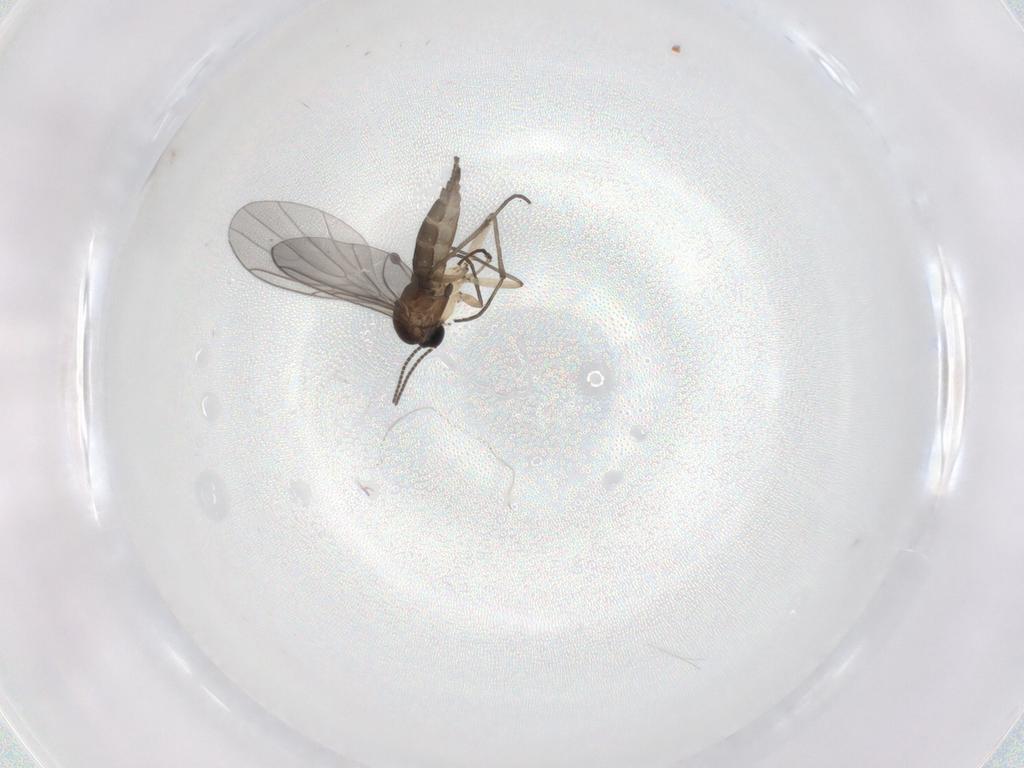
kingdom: Animalia
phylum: Arthropoda
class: Insecta
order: Diptera
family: Sciaridae
